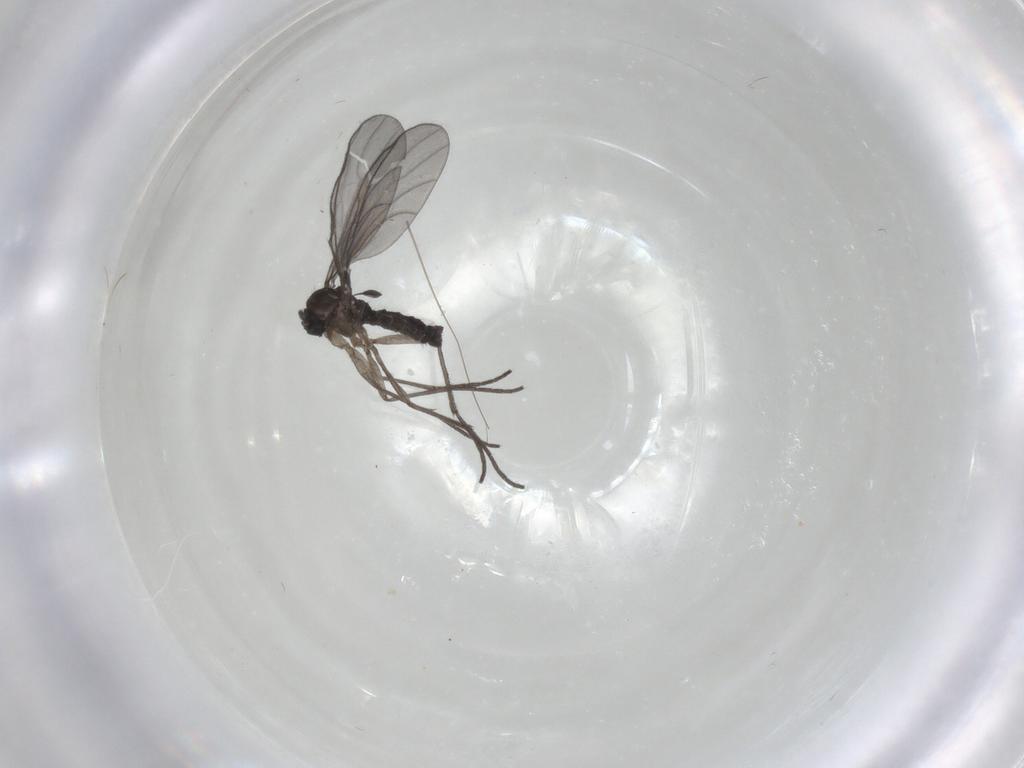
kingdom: Animalia
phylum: Arthropoda
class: Insecta
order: Diptera
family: Sciaridae
